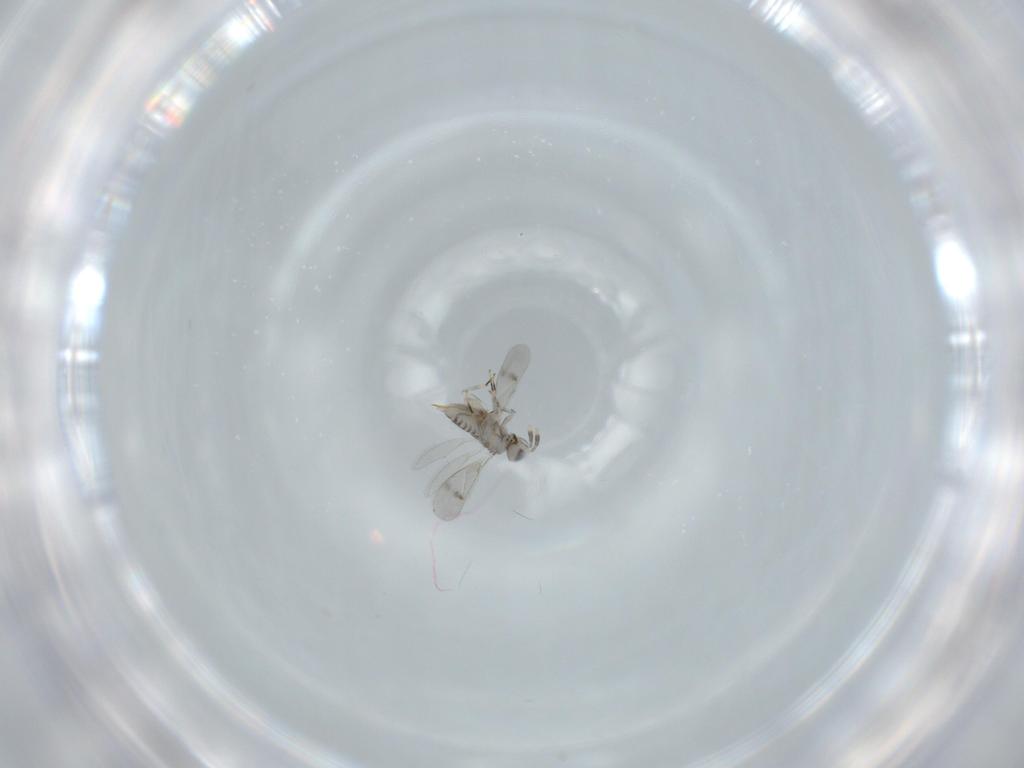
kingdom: Animalia
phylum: Arthropoda
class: Insecta
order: Hymenoptera
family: Aphelinidae
